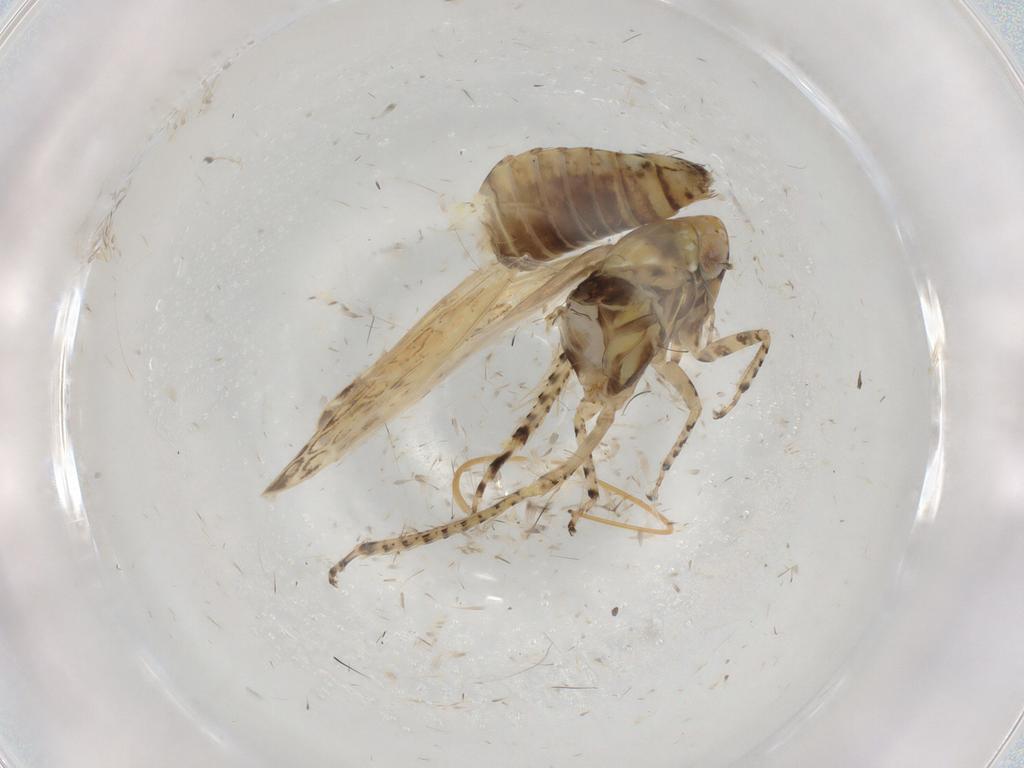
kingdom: Animalia
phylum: Arthropoda
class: Insecta
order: Hemiptera
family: Cicadellidae
